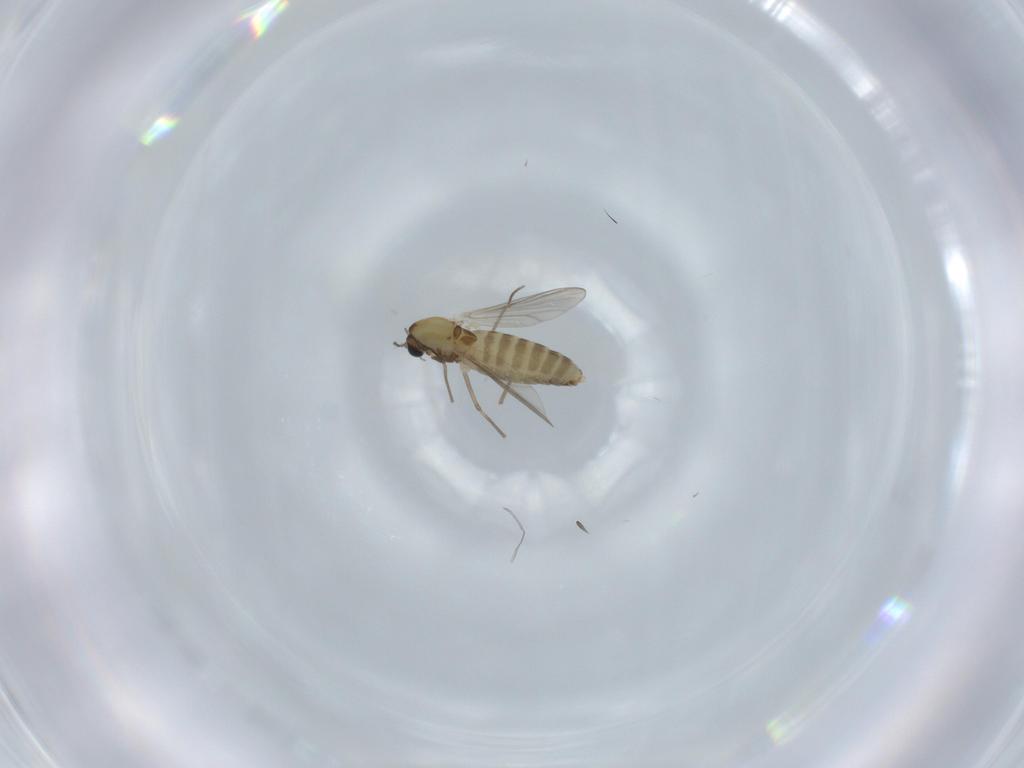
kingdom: Animalia
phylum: Arthropoda
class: Insecta
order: Diptera
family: Chironomidae
